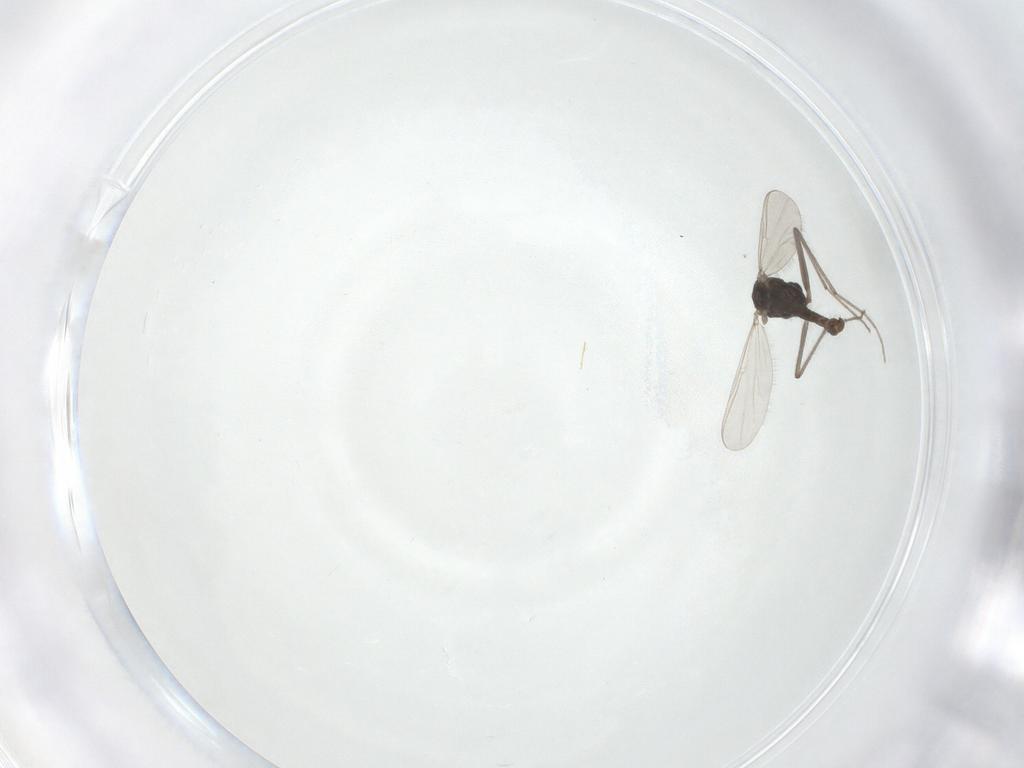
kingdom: Animalia
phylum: Arthropoda
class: Insecta
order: Diptera
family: Chironomidae
